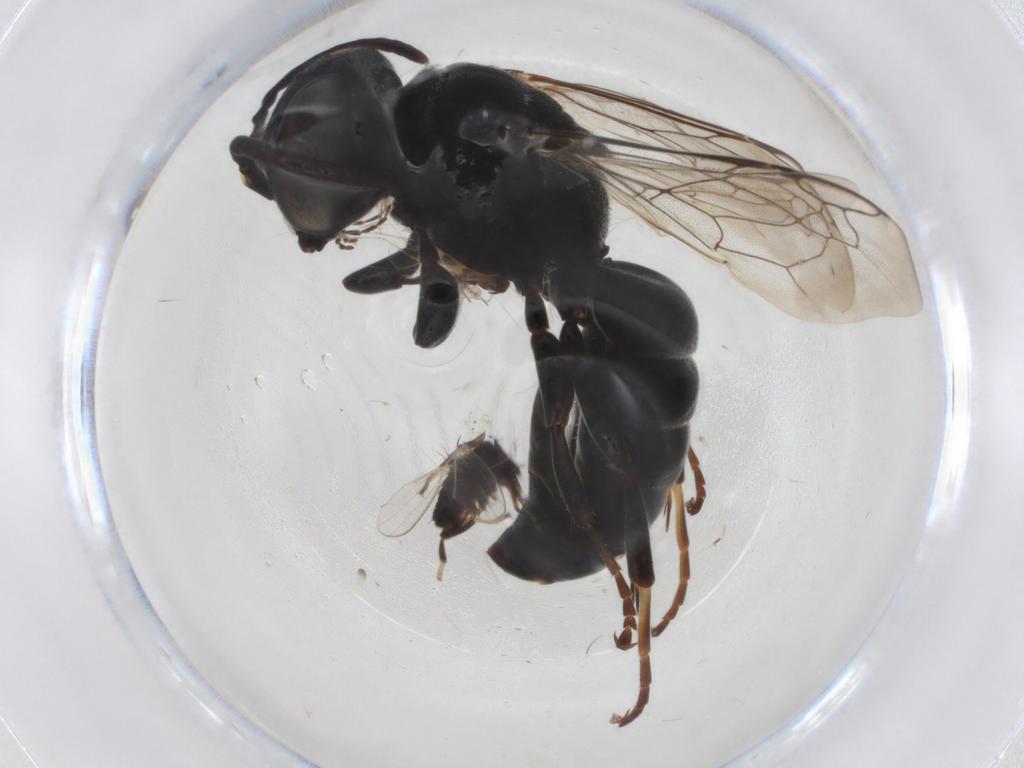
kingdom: Animalia
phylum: Arthropoda
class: Insecta
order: Diptera
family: Milichiidae
